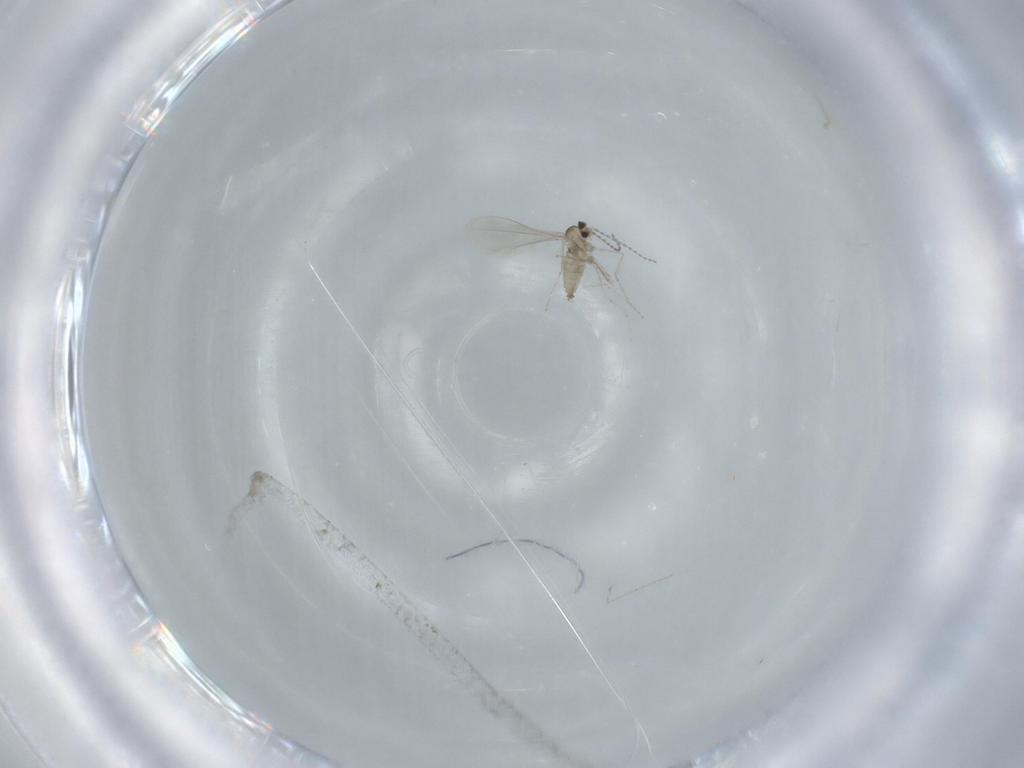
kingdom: Animalia
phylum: Arthropoda
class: Insecta
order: Diptera
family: Cecidomyiidae
